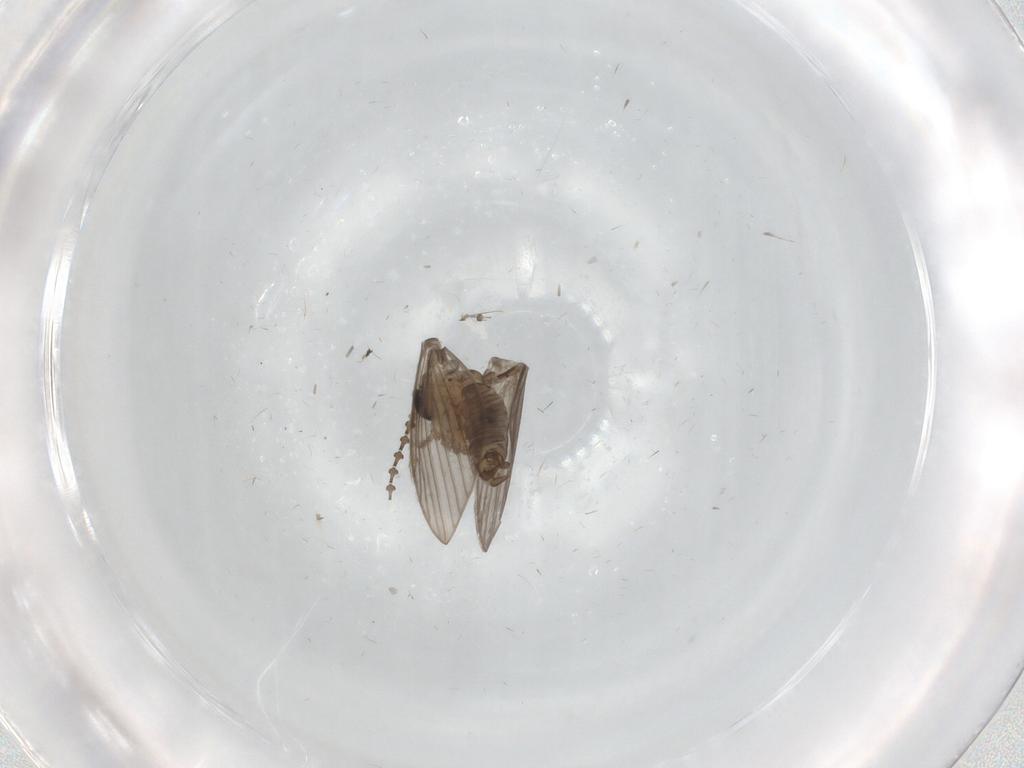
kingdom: Animalia
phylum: Arthropoda
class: Insecta
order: Diptera
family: Psychodidae
